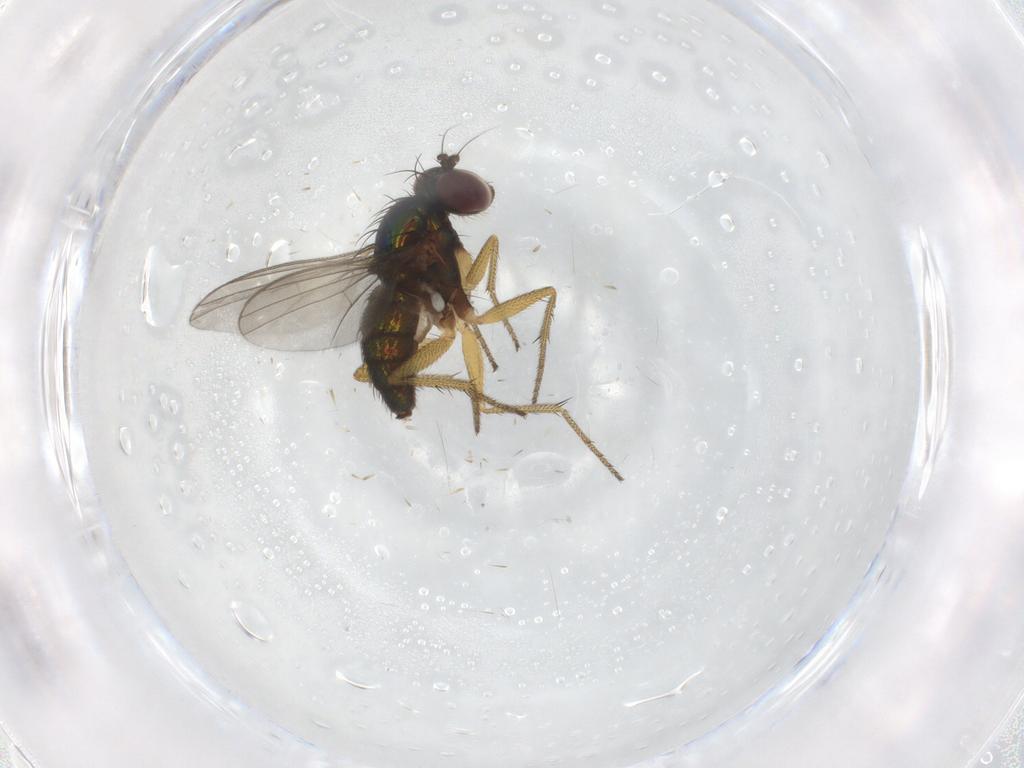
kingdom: Animalia
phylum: Arthropoda
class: Insecta
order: Diptera
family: Dolichopodidae
